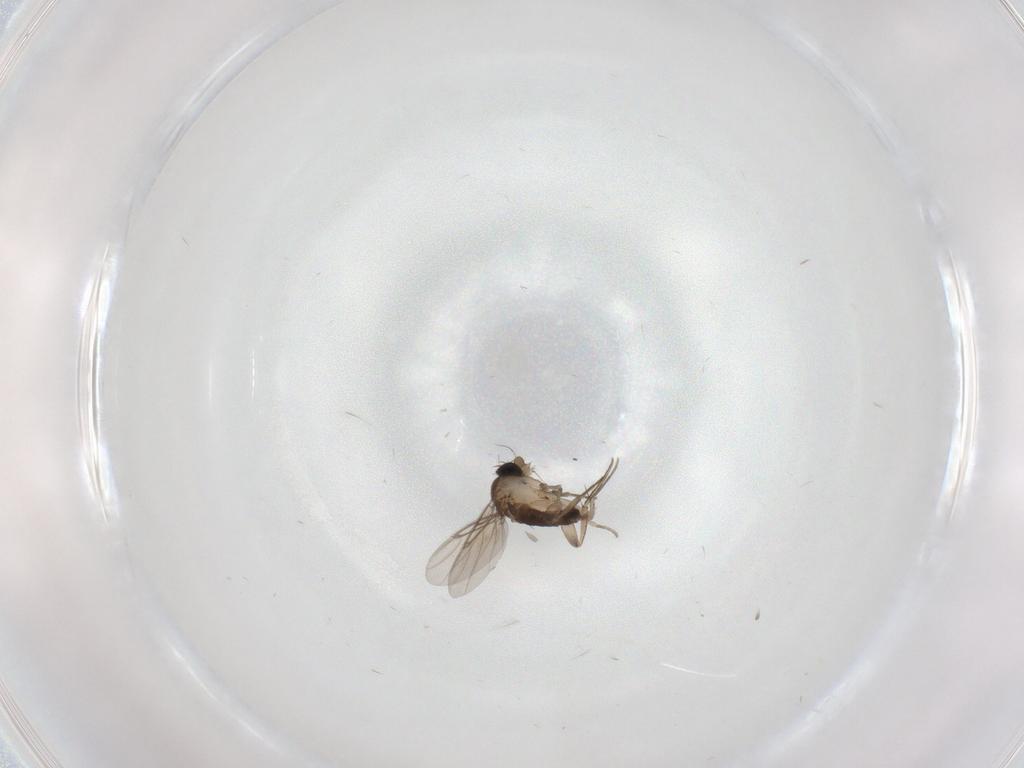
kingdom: Animalia
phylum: Arthropoda
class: Insecta
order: Diptera
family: Phoridae
